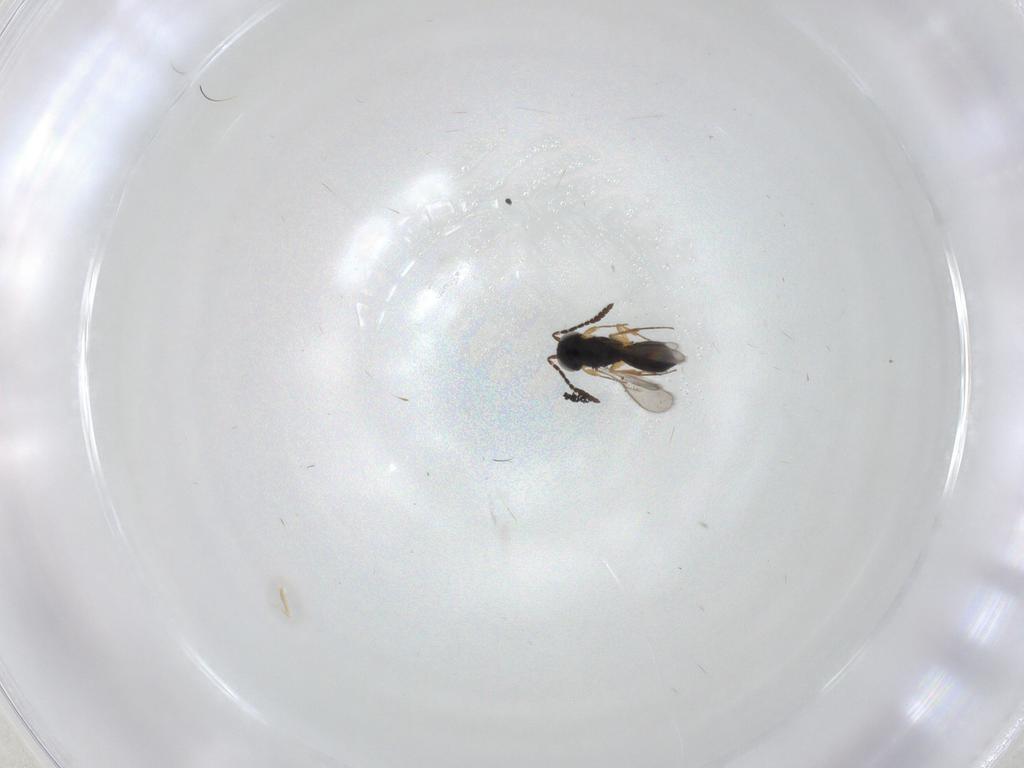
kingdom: Animalia
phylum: Arthropoda
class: Insecta
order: Hymenoptera
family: Scelionidae
